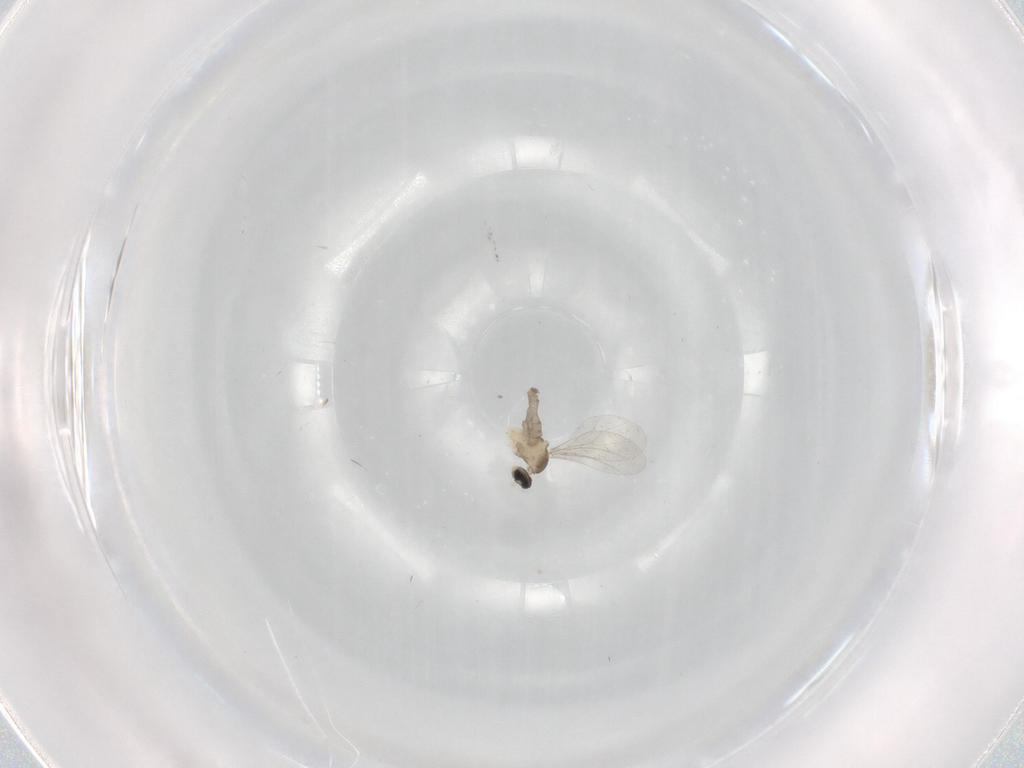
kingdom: Animalia
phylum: Arthropoda
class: Insecta
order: Diptera
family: Cecidomyiidae
